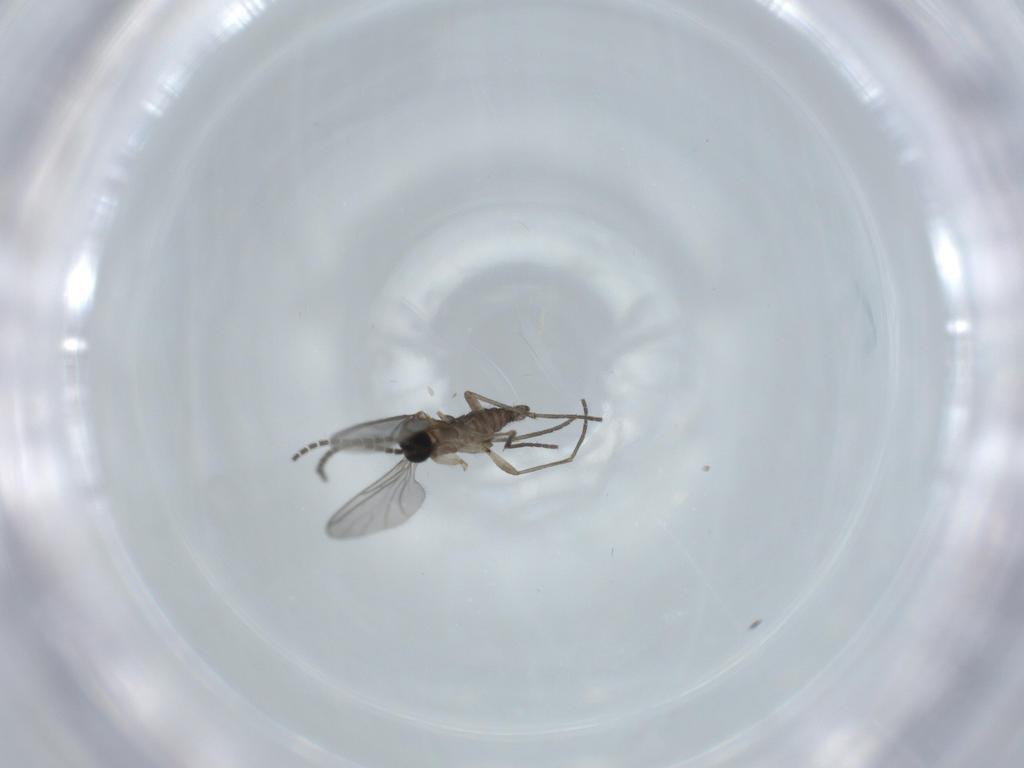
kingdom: Animalia
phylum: Arthropoda
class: Insecta
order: Diptera
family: Sciaridae
